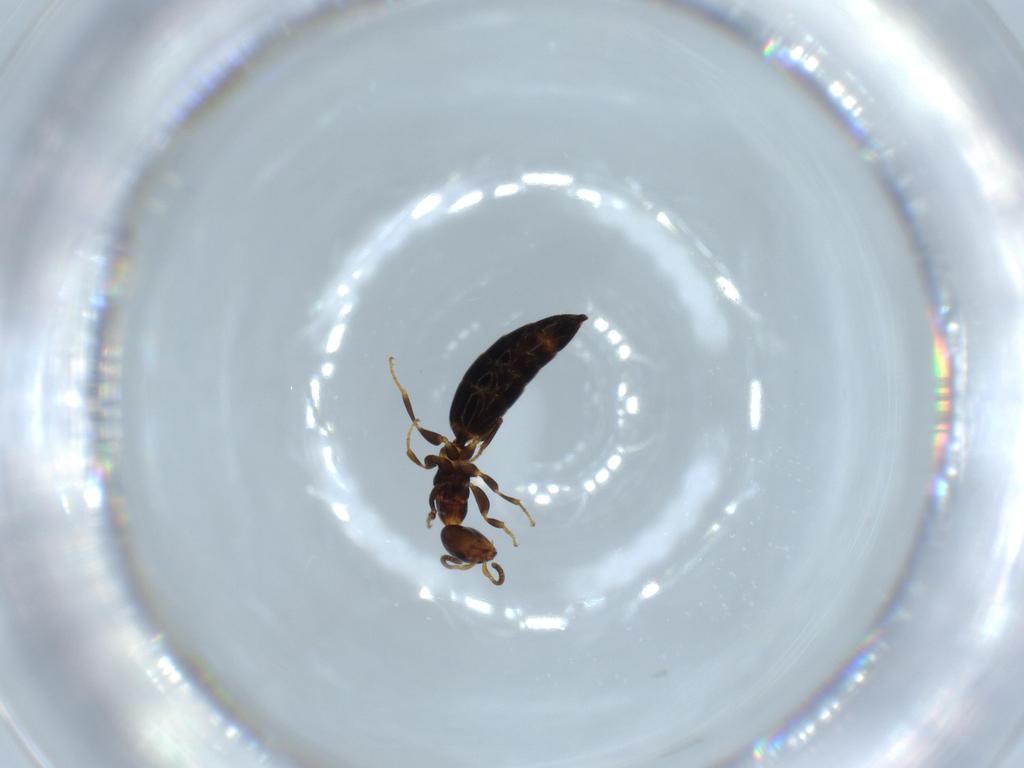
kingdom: Animalia
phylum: Arthropoda
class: Insecta
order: Hymenoptera
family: Bethylidae
